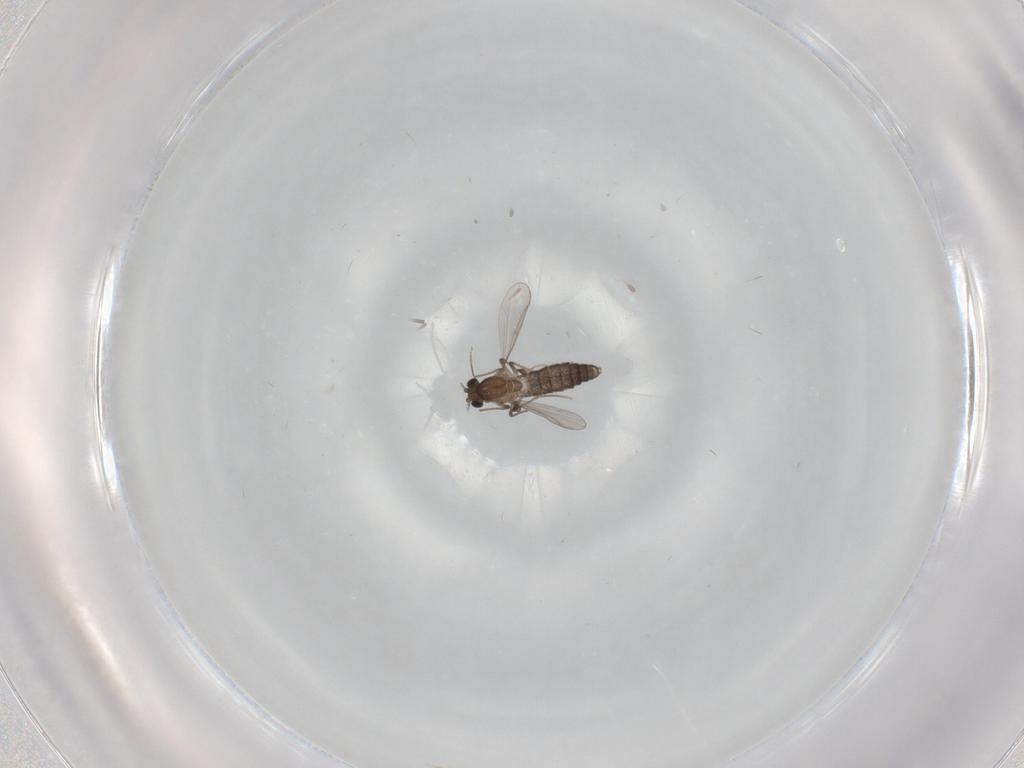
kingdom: Animalia
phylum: Arthropoda
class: Insecta
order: Diptera
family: Chironomidae
